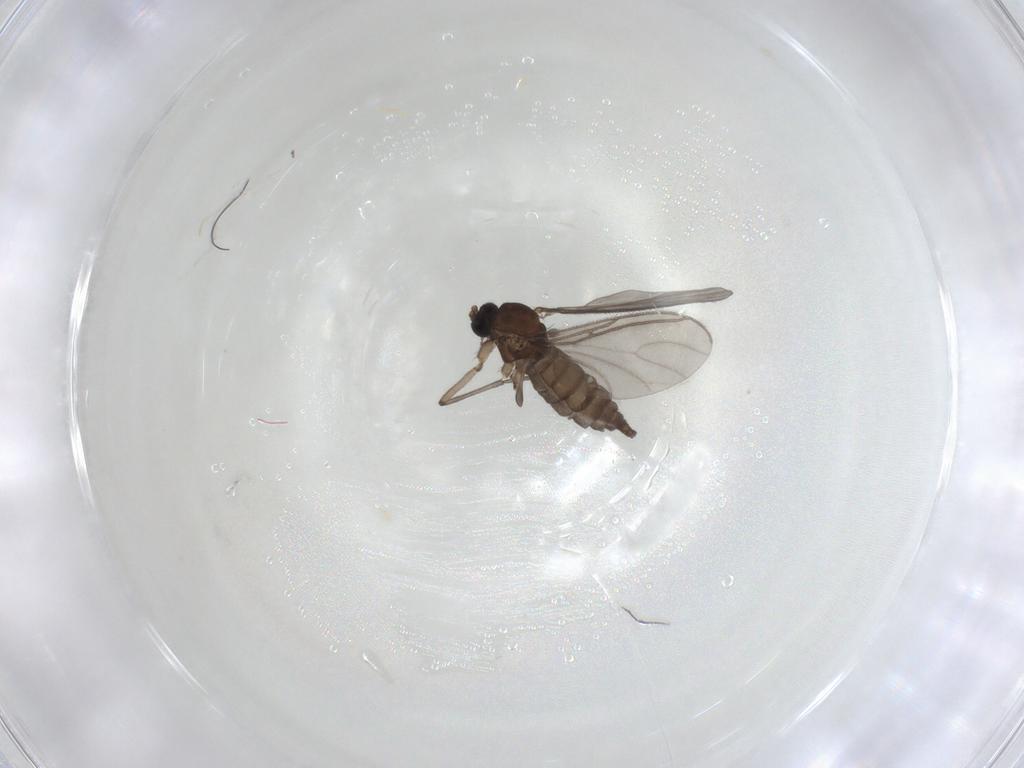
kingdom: Animalia
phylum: Arthropoda
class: Insecta
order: Diptera
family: Sciaridae
